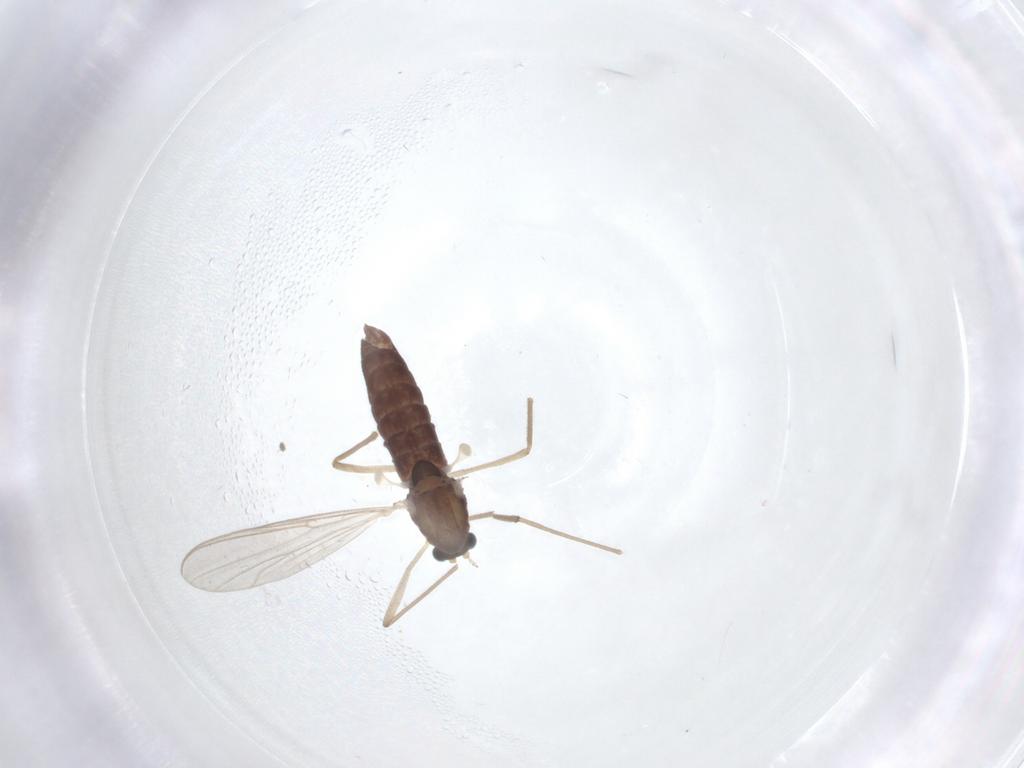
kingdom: Animalia
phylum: Arthropoda
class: Insecta
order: Diptera
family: Chironomidae
